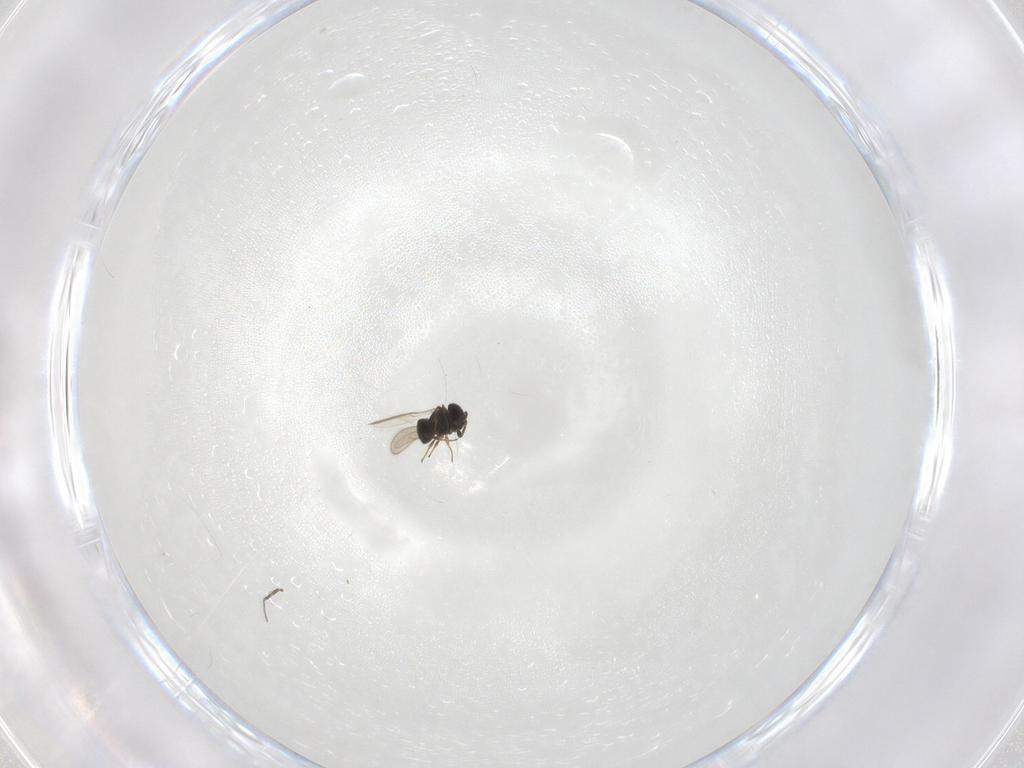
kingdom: Animalia
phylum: Arthropoda
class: Insecta
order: Hymenoptera
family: Scelionidae
